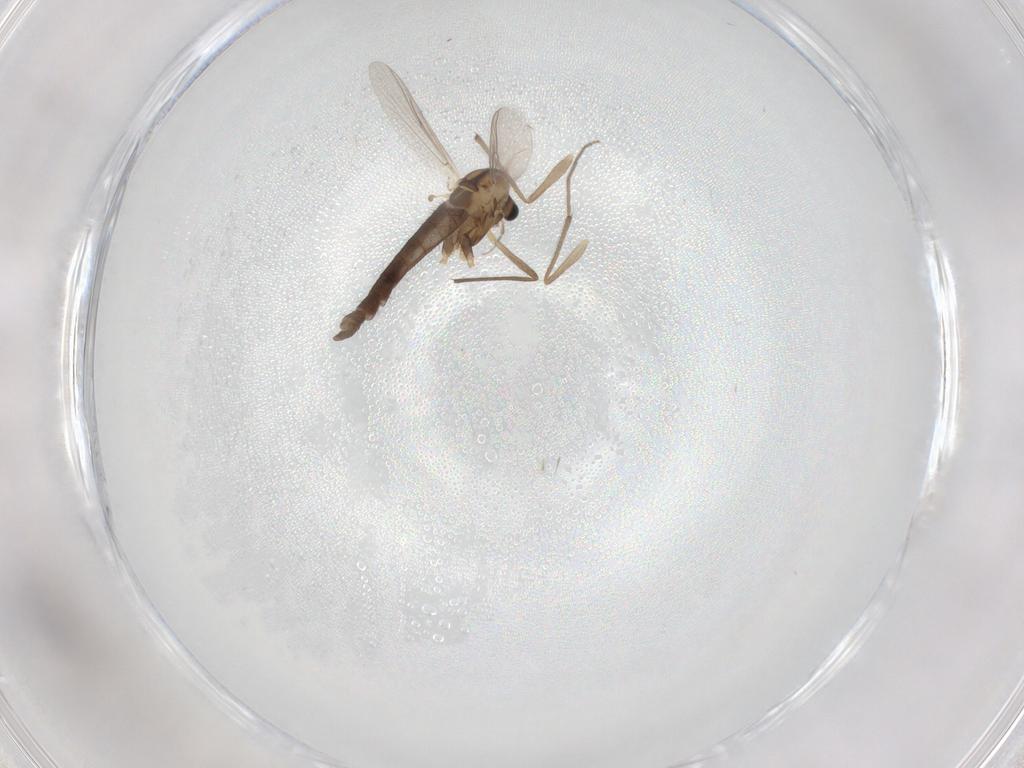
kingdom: Animalia
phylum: Arthropoda
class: Insecta
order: Diptera
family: Chironomidae
